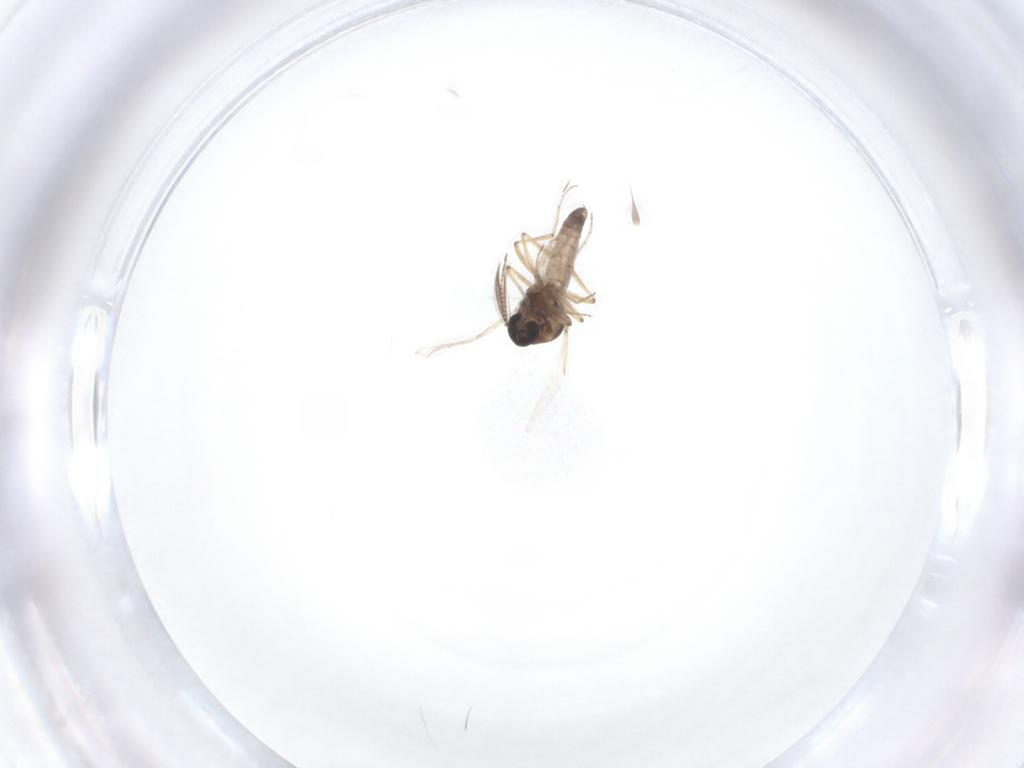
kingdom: Animalia
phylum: Arthropoda
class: Insecta
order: Diptera
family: Ceratopogonidae
